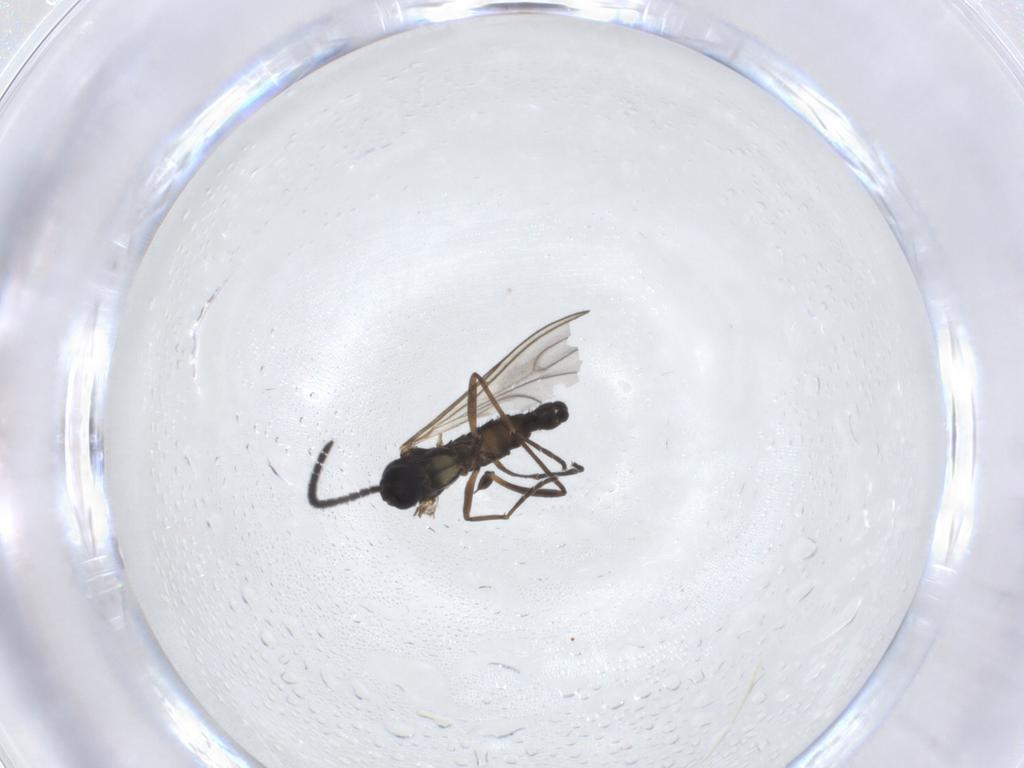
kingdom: Animalia
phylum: Arthropoda
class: Insecta
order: Diptera
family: Sciaridae
